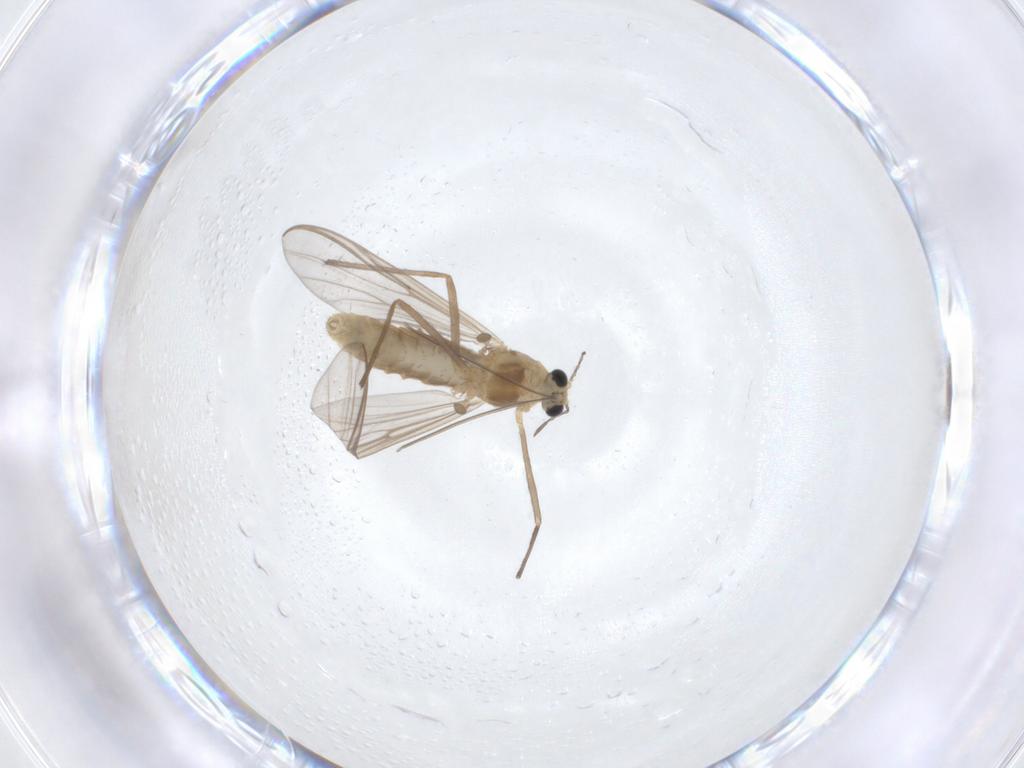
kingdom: Animalia
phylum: Arthropoda
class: Insecta
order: Diptera
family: Chironomidae
